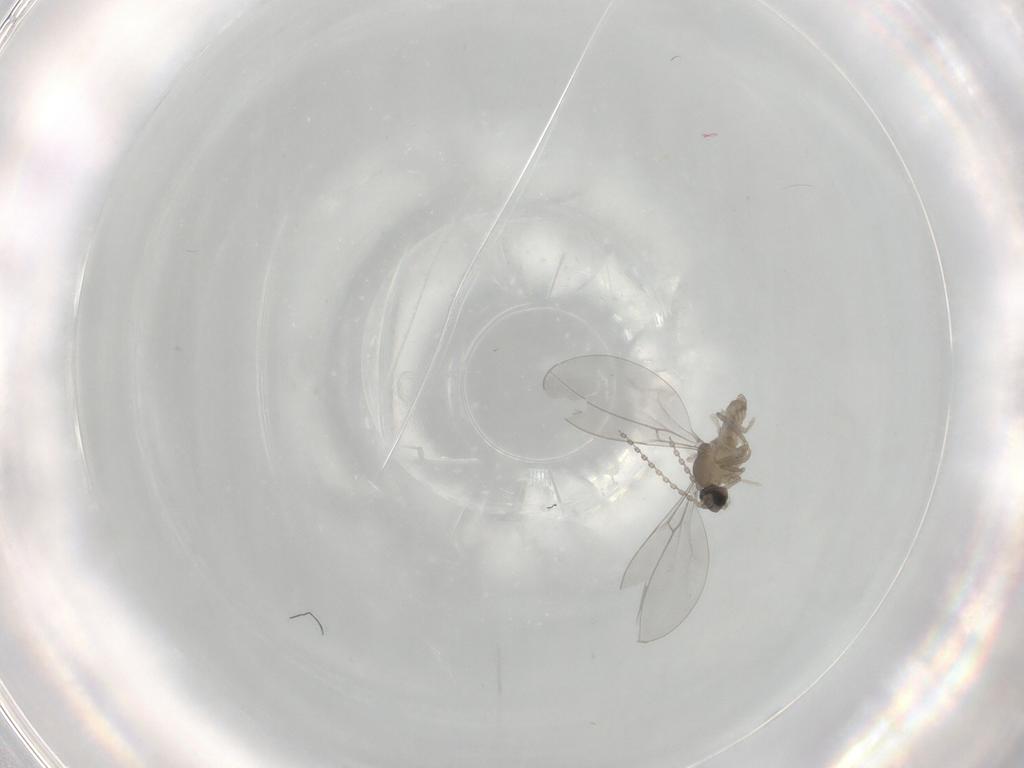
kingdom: Animalia
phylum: Arthropoda
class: Insecta
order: Diptera
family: Cecidomyiidae
